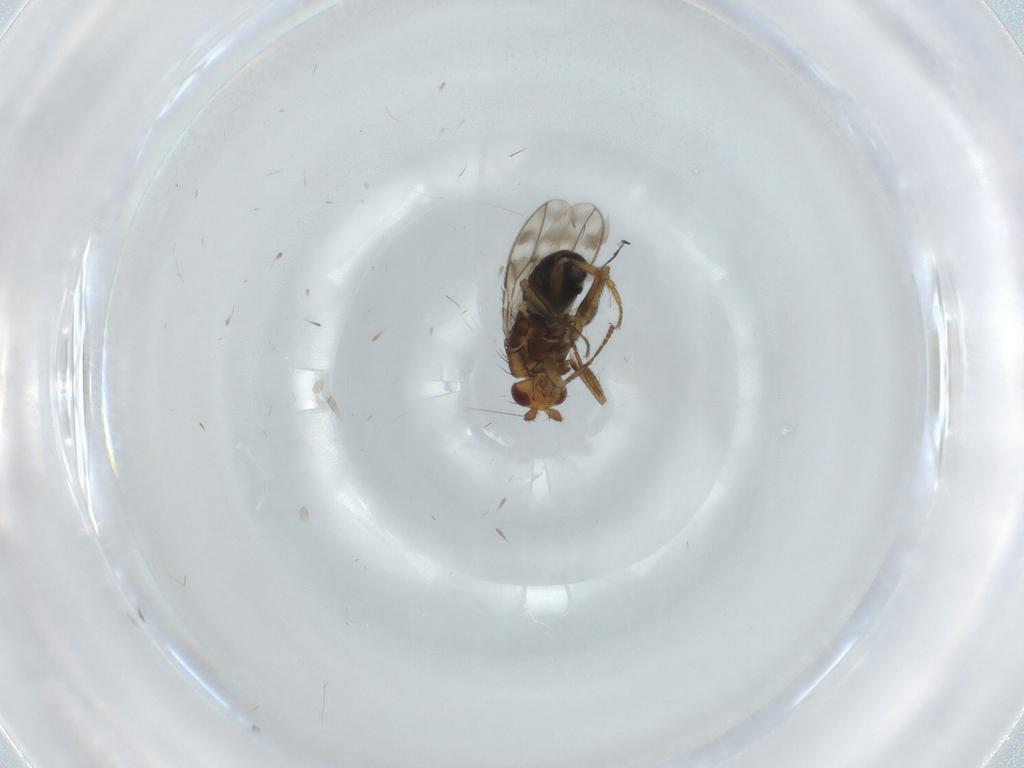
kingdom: Animalia
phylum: Arthropoda
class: Insecta
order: Diptera
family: Sphaeroceridae
